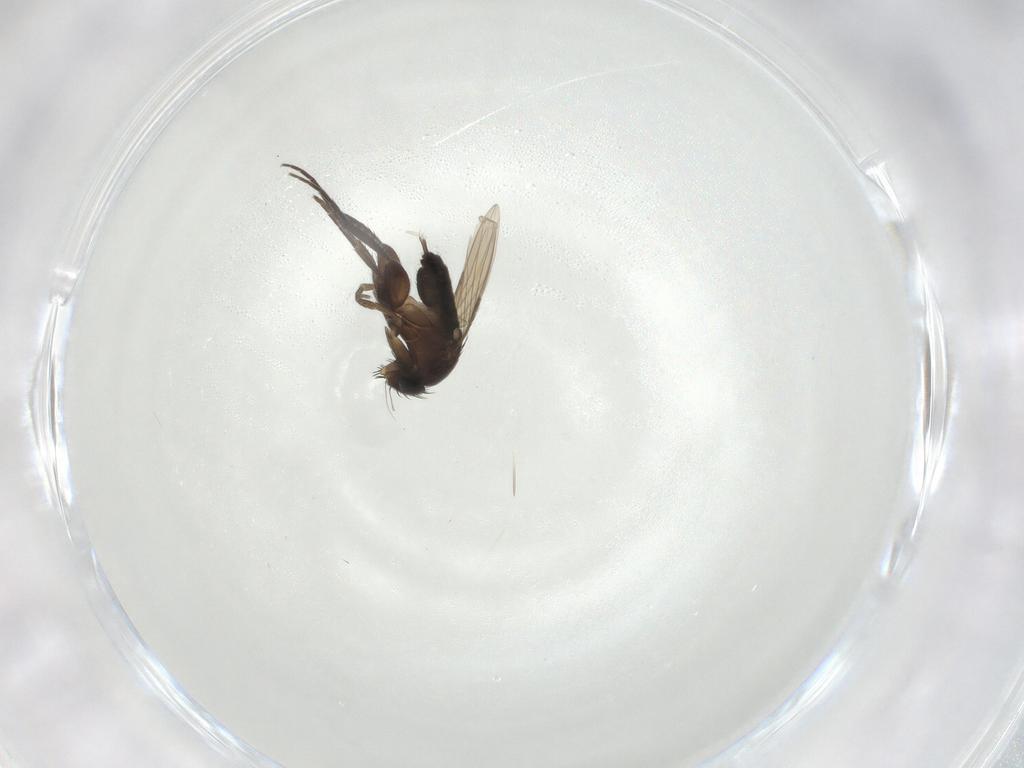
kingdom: Animalia
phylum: Arthropoda
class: Insecta
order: Diptera
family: Phoridae
